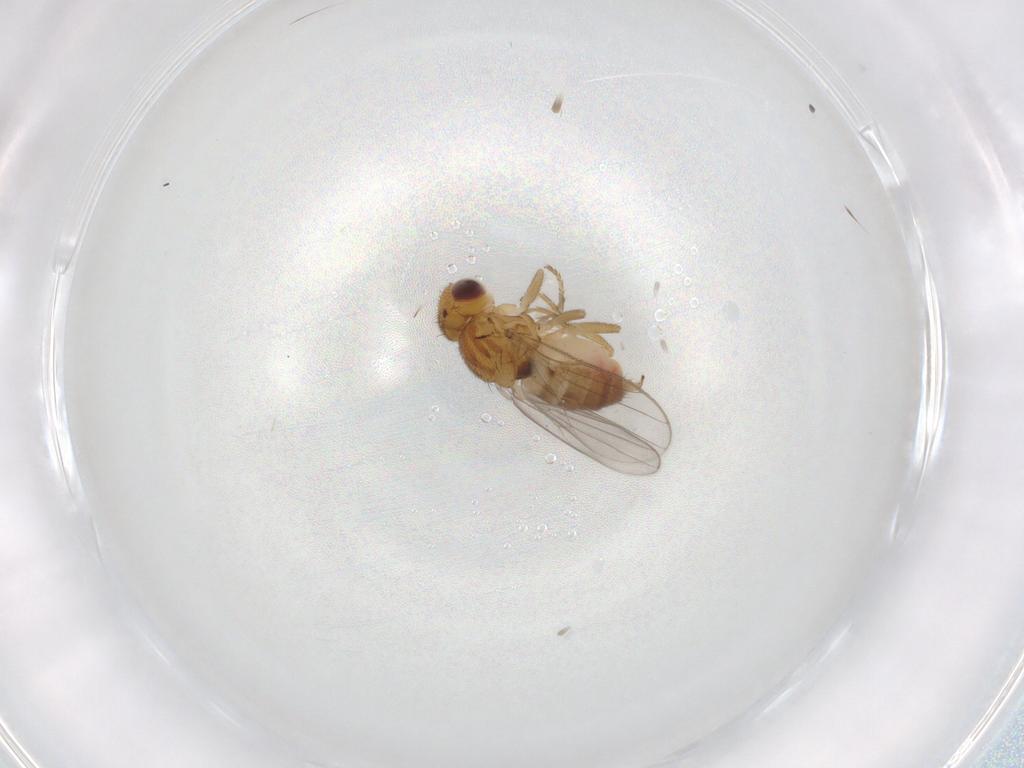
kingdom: Animalia
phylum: Arthropoda
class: Insecta
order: Diptera
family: Chloropidae
